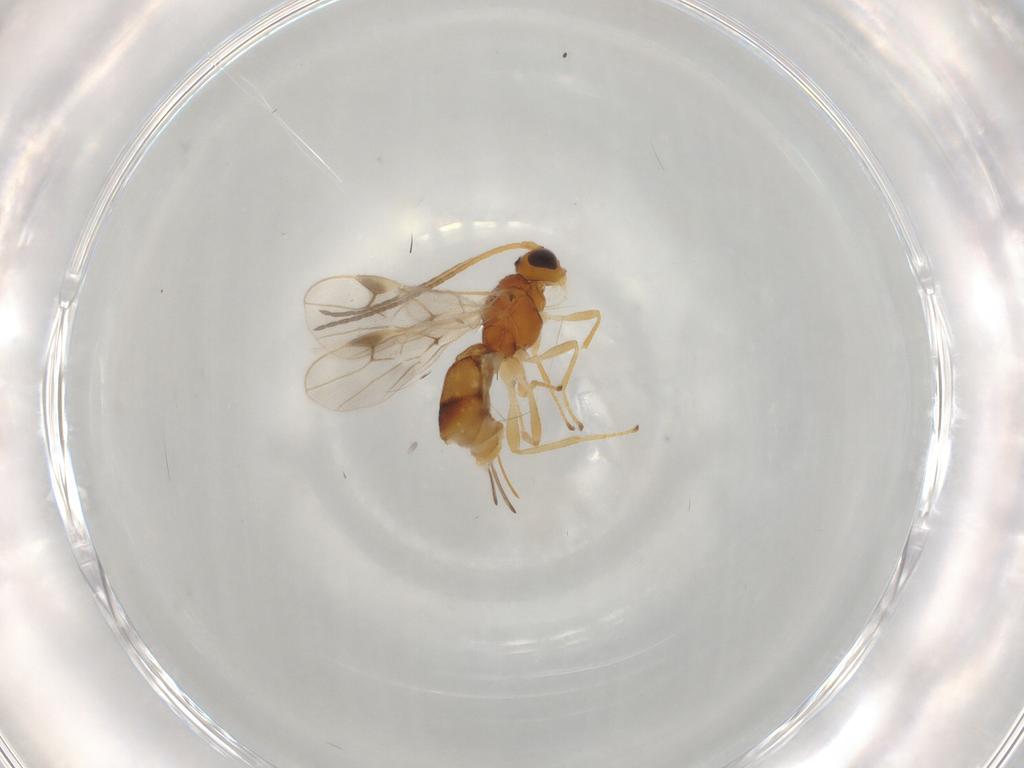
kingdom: Animalia
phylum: Arthropoda
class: Insecta
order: Hymenoptera
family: Braconidae
